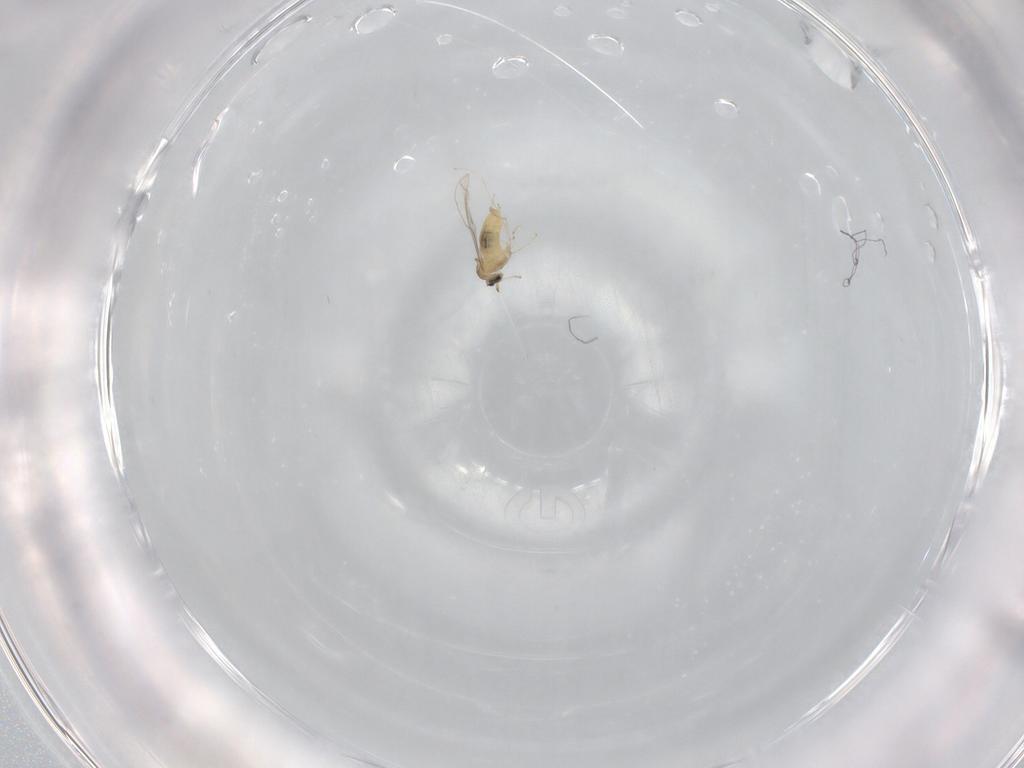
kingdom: Animalia
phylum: Arthropoda
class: Insecta
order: Diptera
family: Cecidomyiidae
